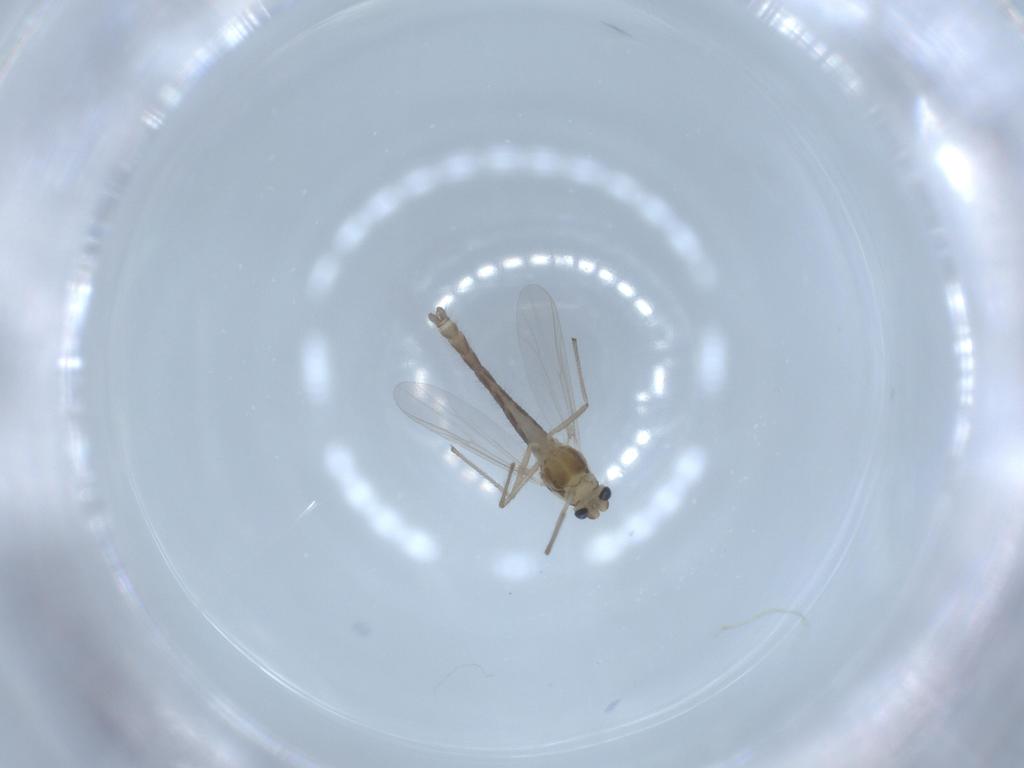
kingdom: Animalia
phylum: Arthropoda
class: Insecta
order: Diptera
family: Chironomidae
